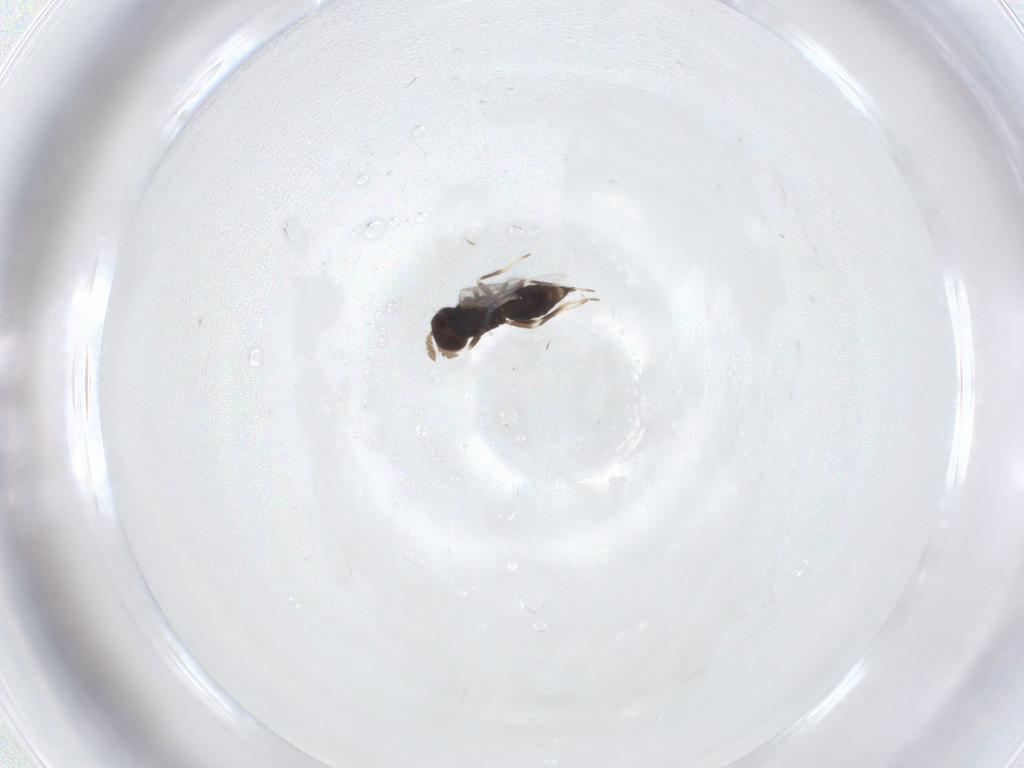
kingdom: Animalia
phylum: Arthropoda
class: Insecta
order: Hymenoptera
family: Eulophidae
